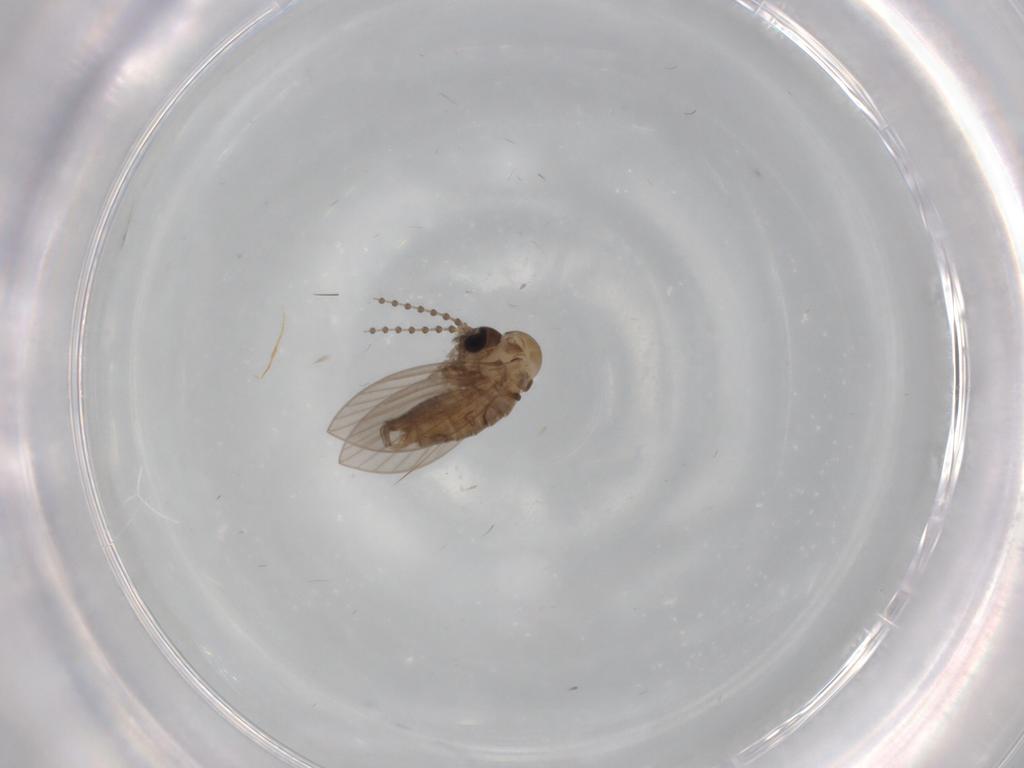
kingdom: Animalia
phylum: Arthropoda
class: Insecta
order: Diptera
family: Psychodidae
